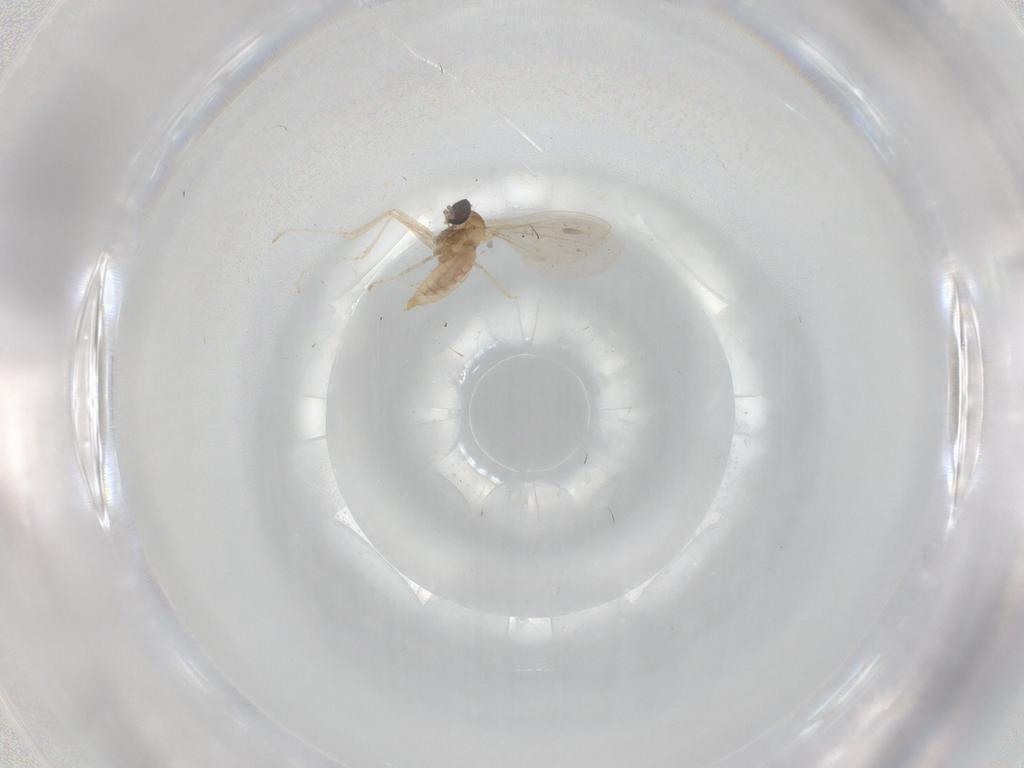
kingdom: Animalia
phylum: Arthropoda
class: Insecta
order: Diptera
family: Cecidomyiidae
